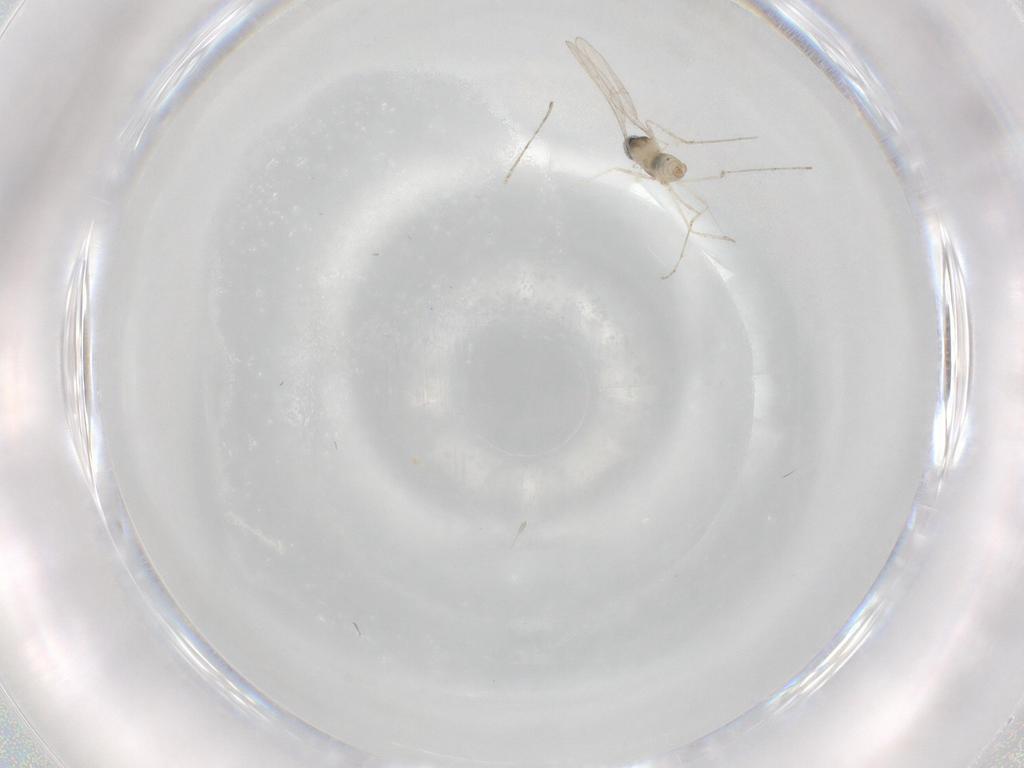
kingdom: Animalia
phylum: Arthropoda
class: Insecta
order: Diptera
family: Cecidomyiidae
